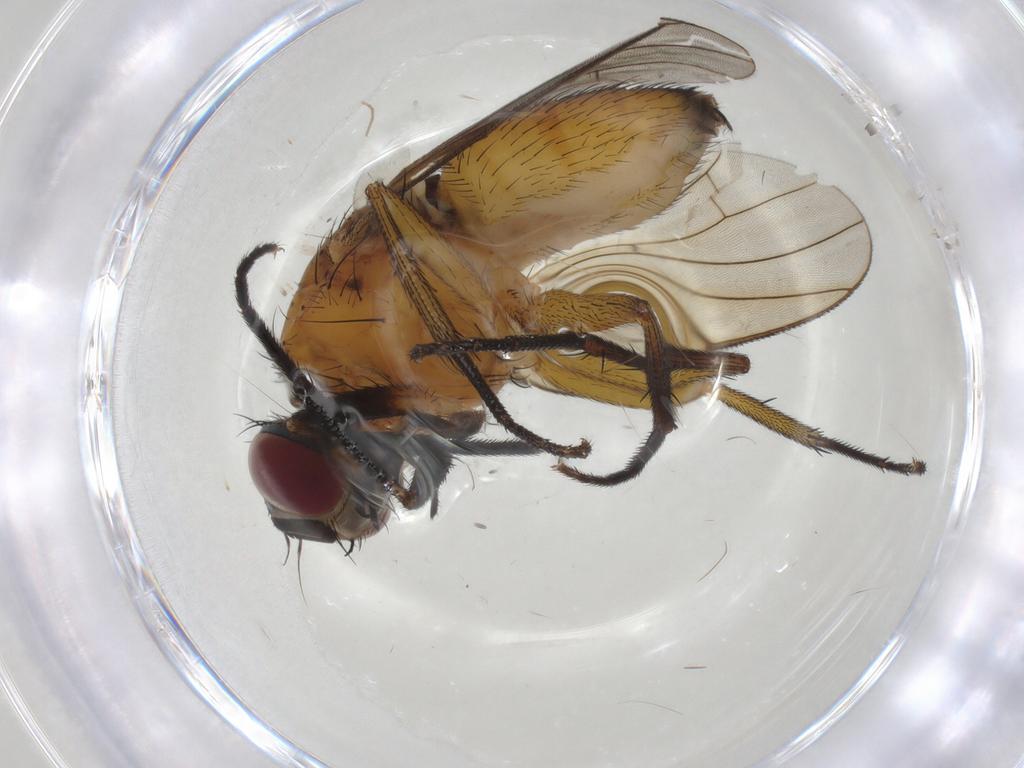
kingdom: Animalia
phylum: Arthropoda
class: Insecta
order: Diptera
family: Muscidae
